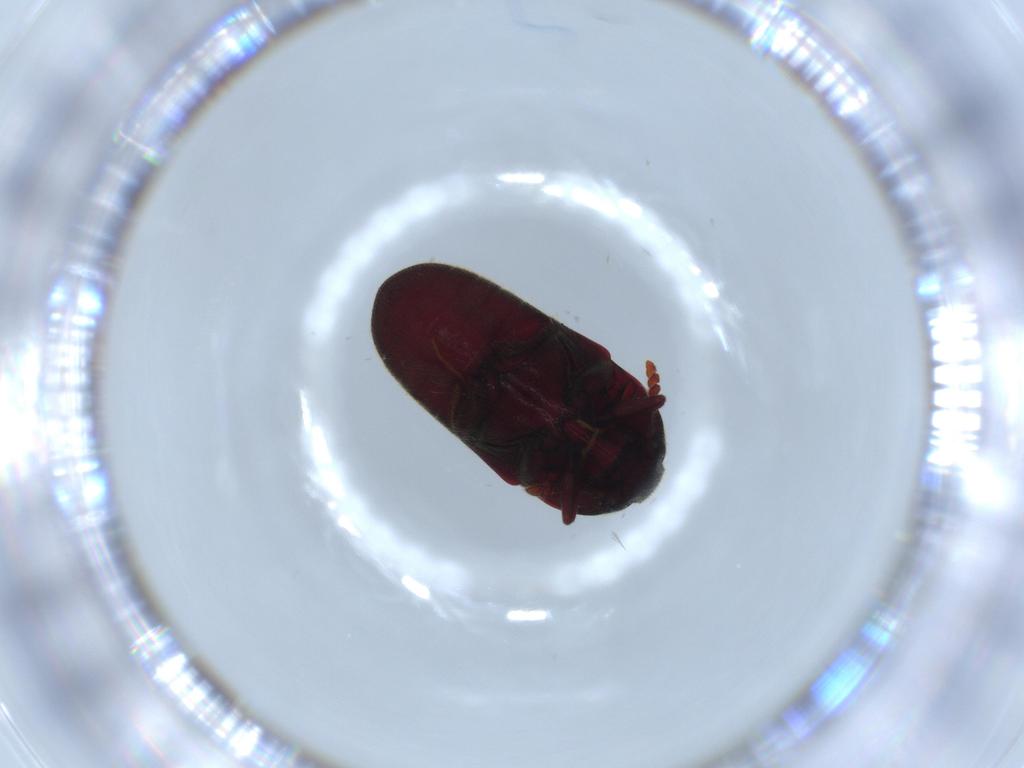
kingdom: Animalia
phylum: Arthropoda
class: Insecta
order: Coleoptera
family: Throscidae
